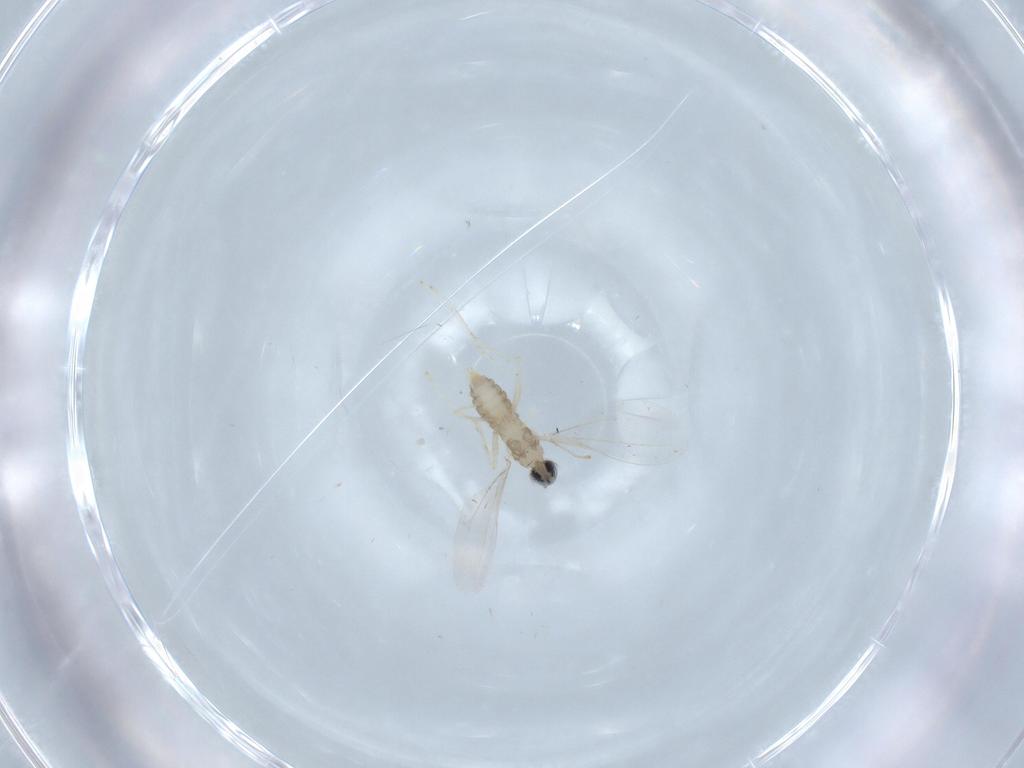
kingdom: Animalia
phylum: Arthropoda
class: Insecta
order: Diptera
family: Cecidomyiidae
